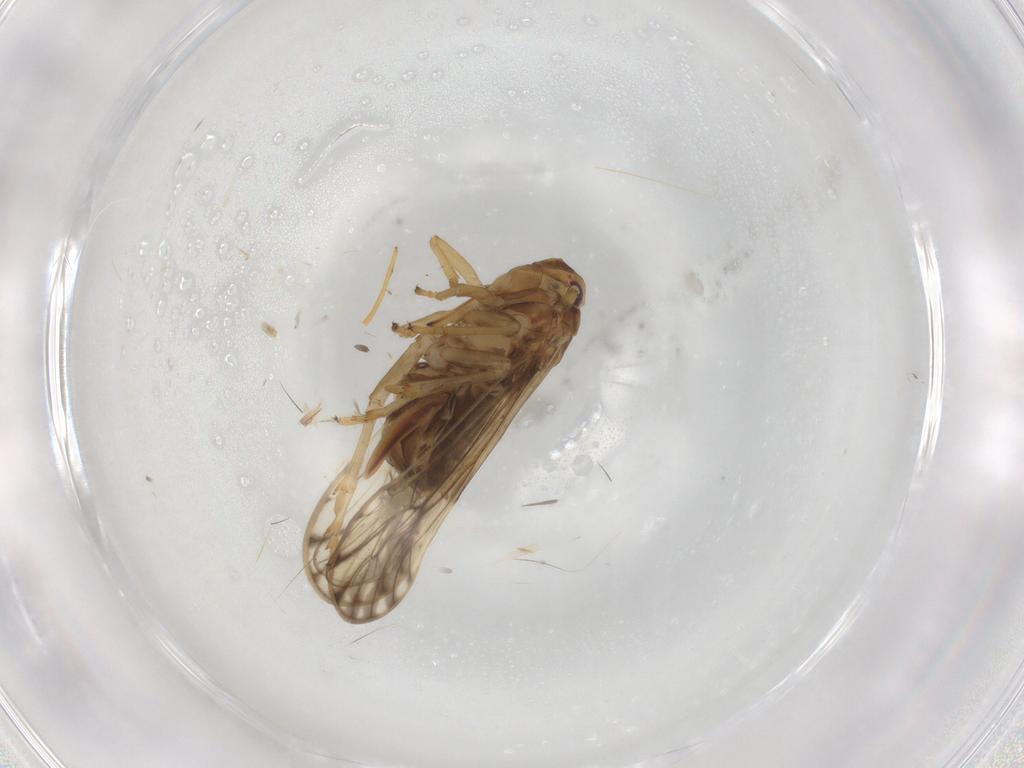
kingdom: Animalia
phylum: Arthropoda
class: Insecta
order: Hemiptera
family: Delphacidae
